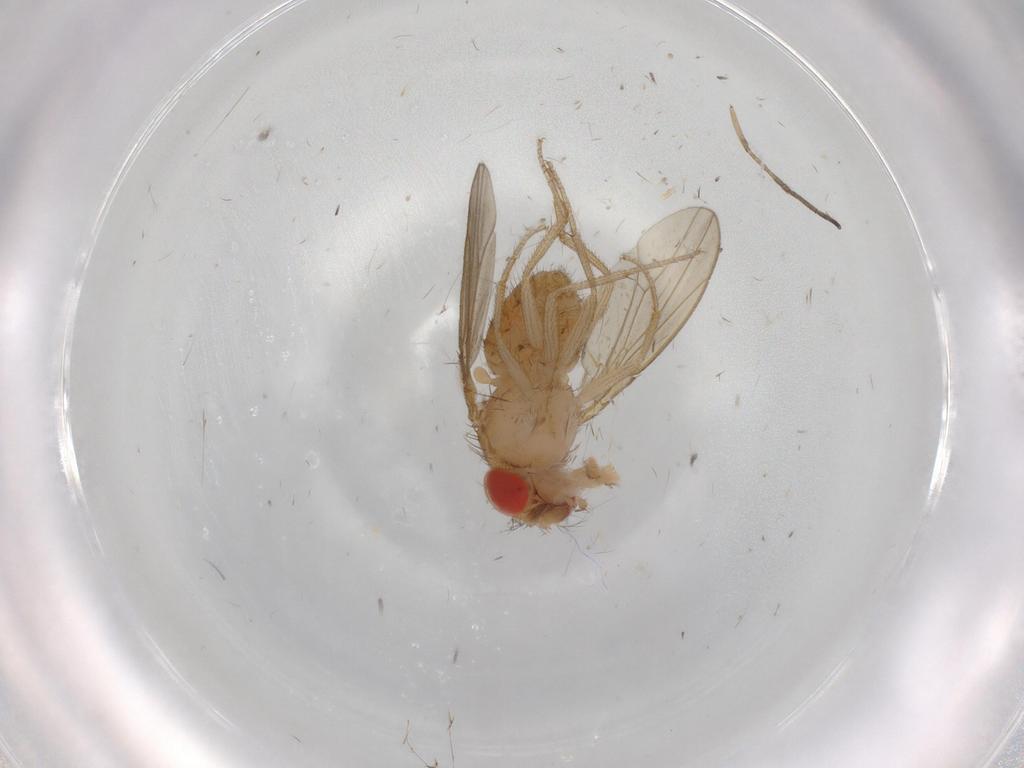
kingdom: Animalia
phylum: Arthropoda
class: Insecta
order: Diptera
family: Drosophilidae
